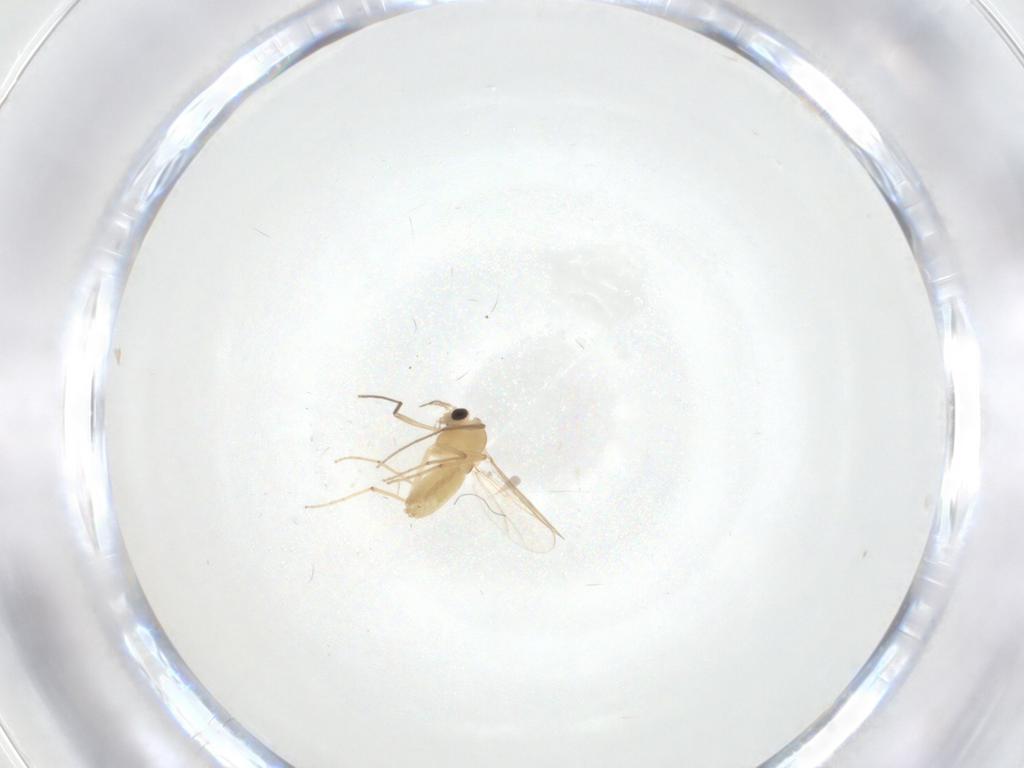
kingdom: Animalia
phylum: Arthropoda
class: Insecta
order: Diptera
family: Chironomidae
